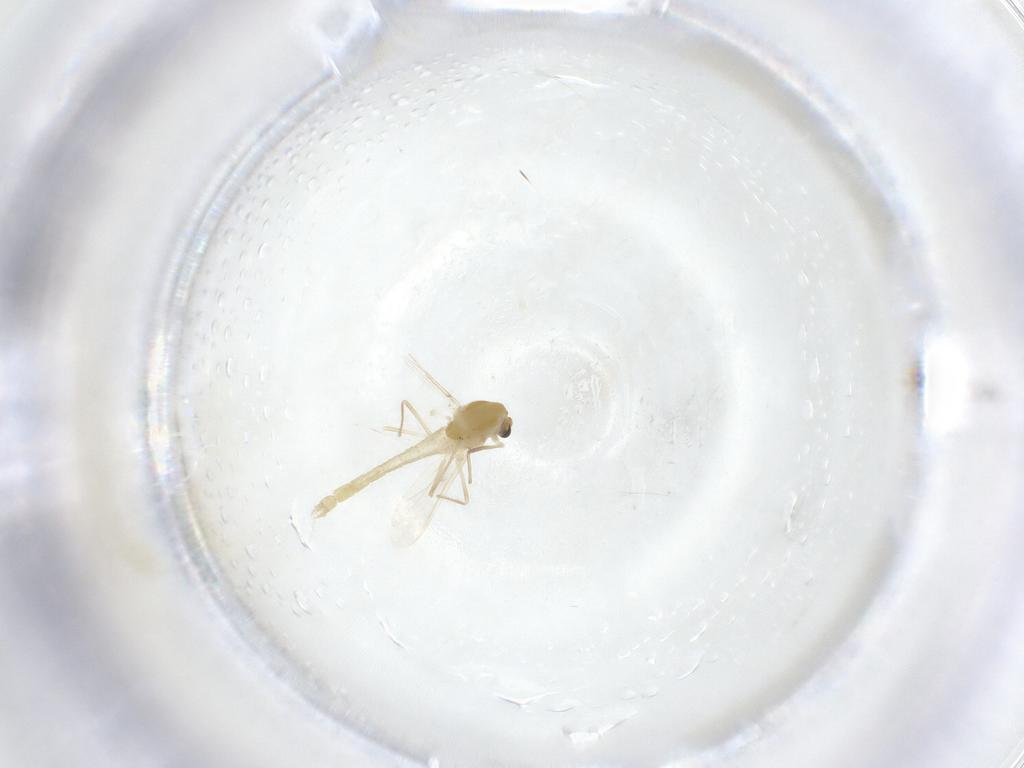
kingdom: Animalia
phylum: Arthropoda
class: Insecta
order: Diptera
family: Chironomidae
